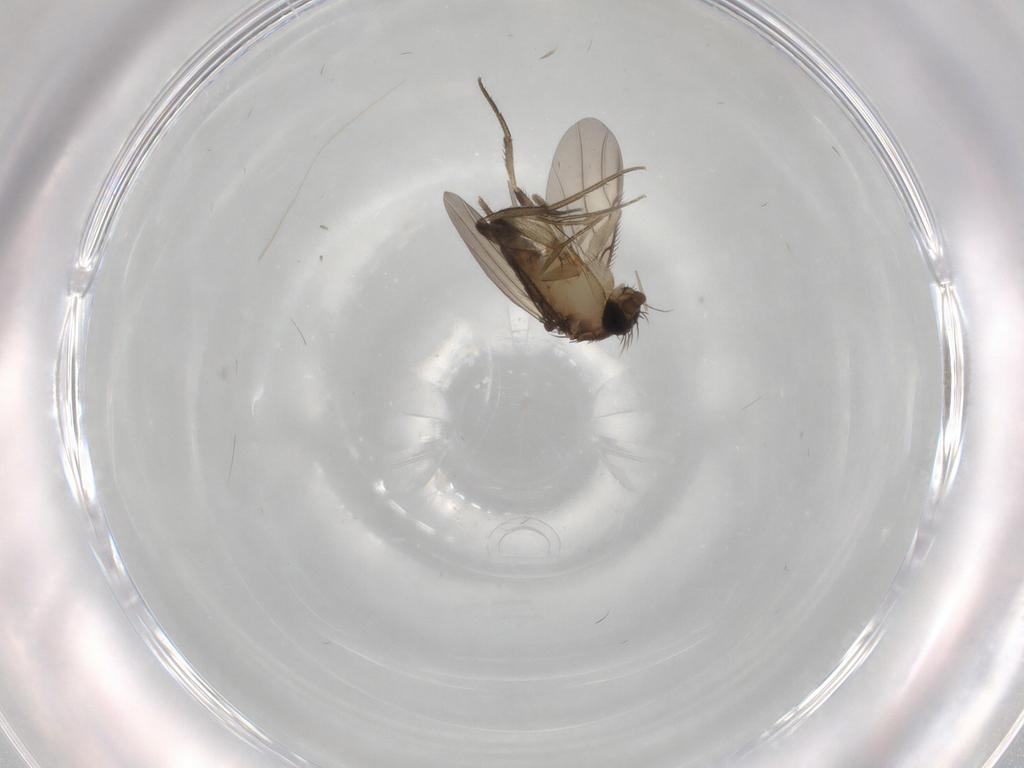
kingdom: Animalia
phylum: Arthropoda
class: Insecta
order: Diptera
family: Phoridae
